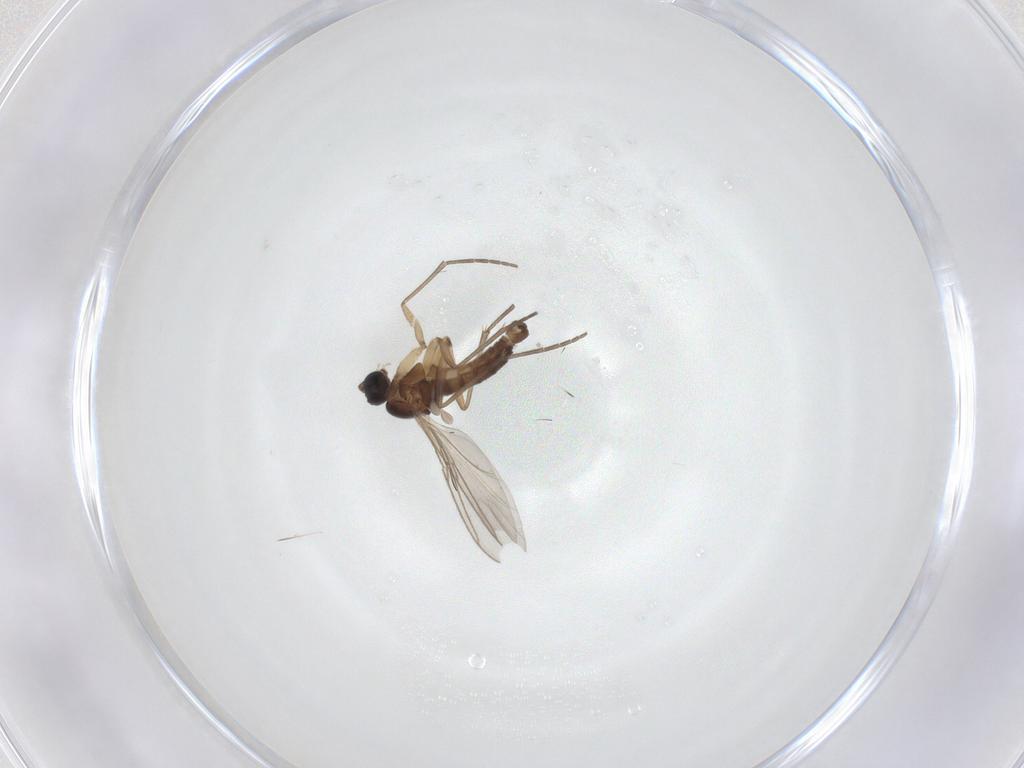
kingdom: Animalia
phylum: Arthropoda
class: Insecta
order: Diptera
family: Sciaridae
